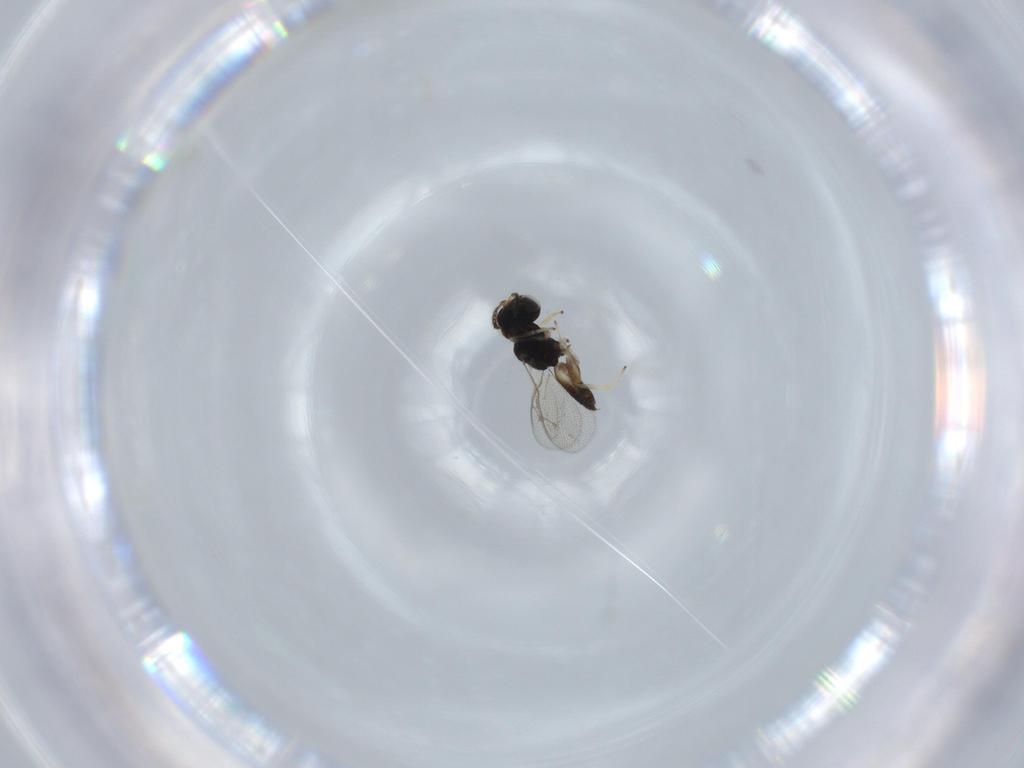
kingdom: Animalia
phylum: Arthropoda
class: Insecta
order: Hymenoptera
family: Pteromalidae
